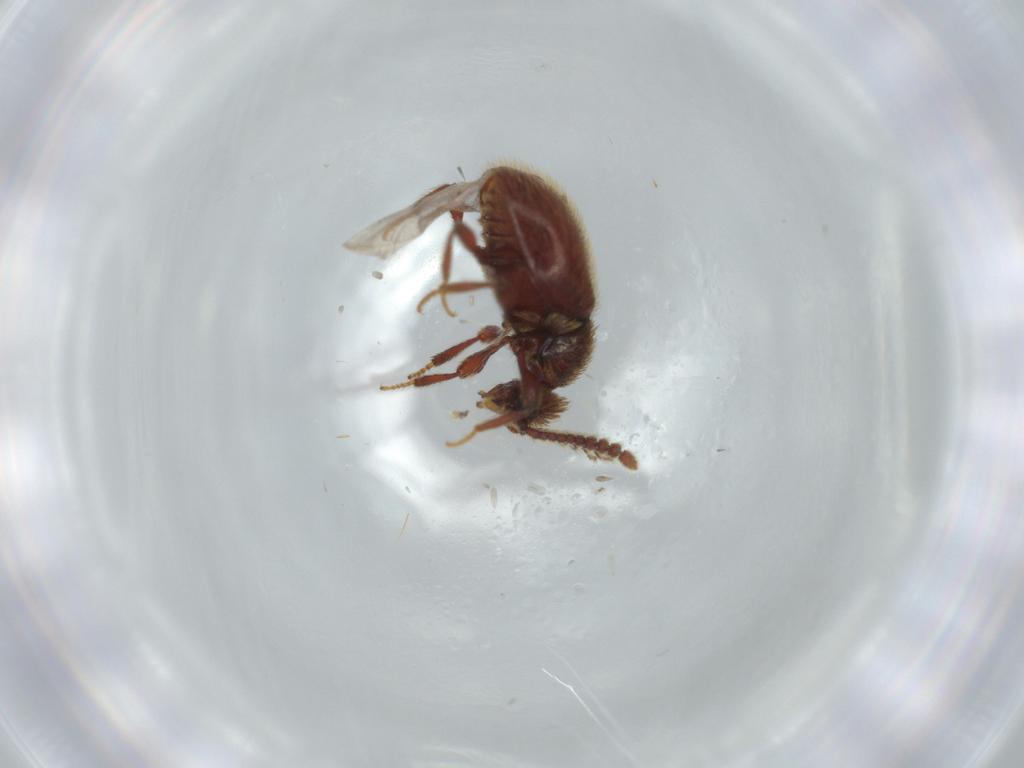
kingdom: Animalia
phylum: Arthropoda
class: Insecta
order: Coleoptera
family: Staphylinidae
